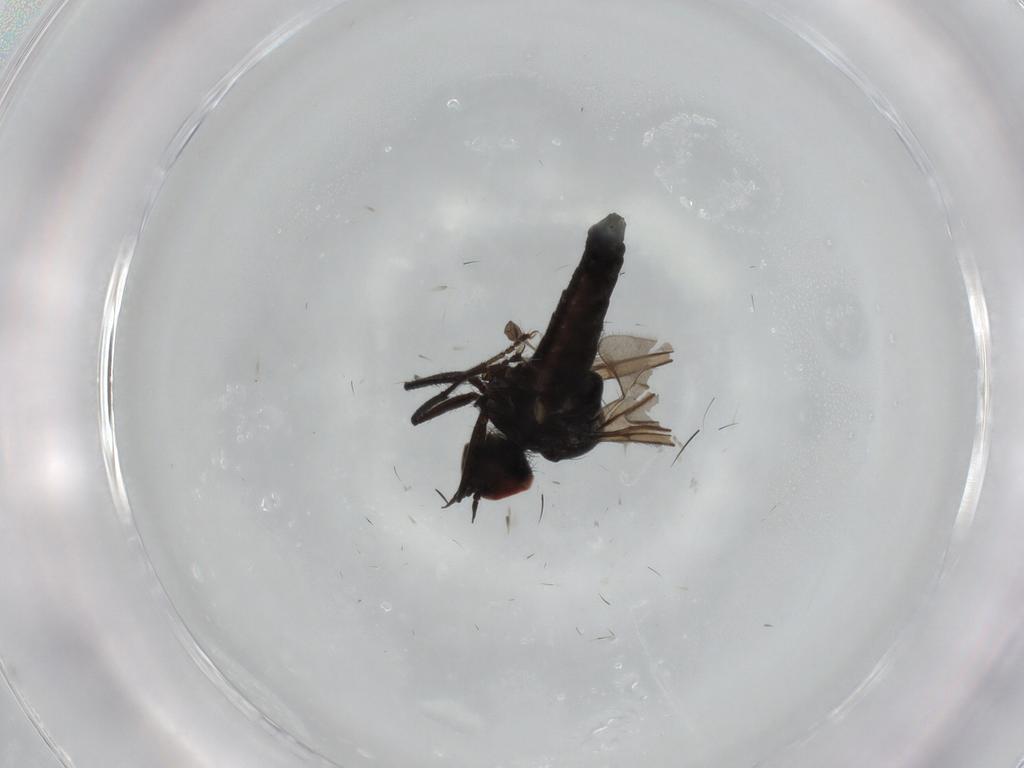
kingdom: Animalia
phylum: Arthropoda
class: Insecta
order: Diptera
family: Hybotidae
